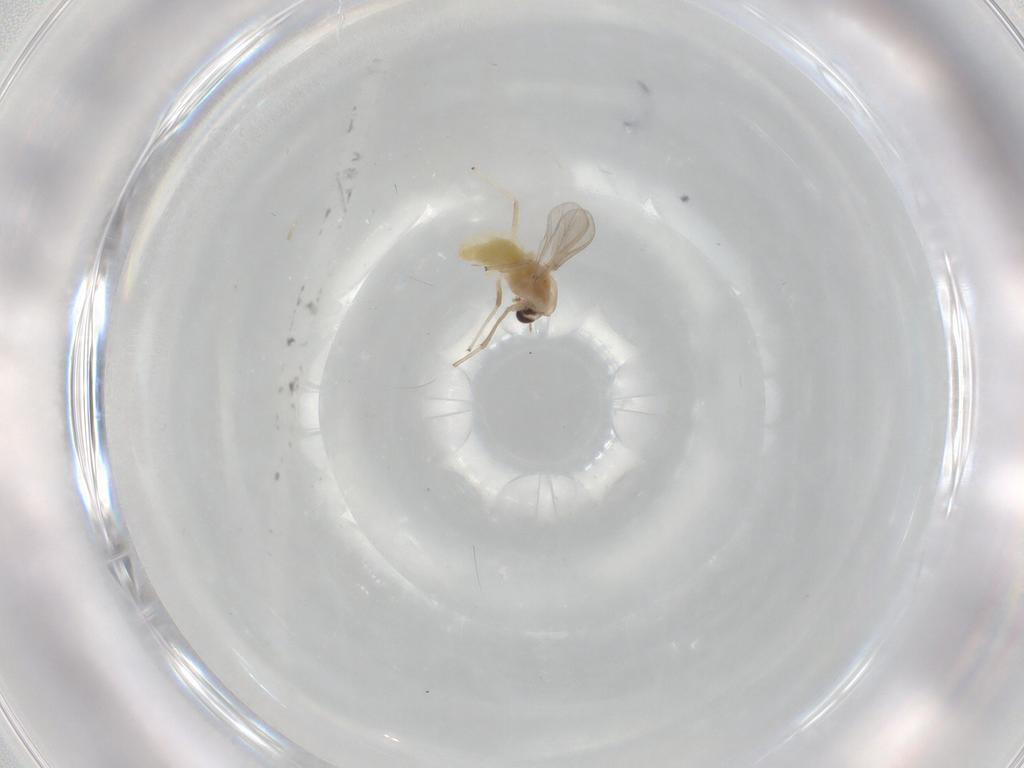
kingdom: Animalia
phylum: Arthropoda
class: Insecta
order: Diptera
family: Chironomidae
